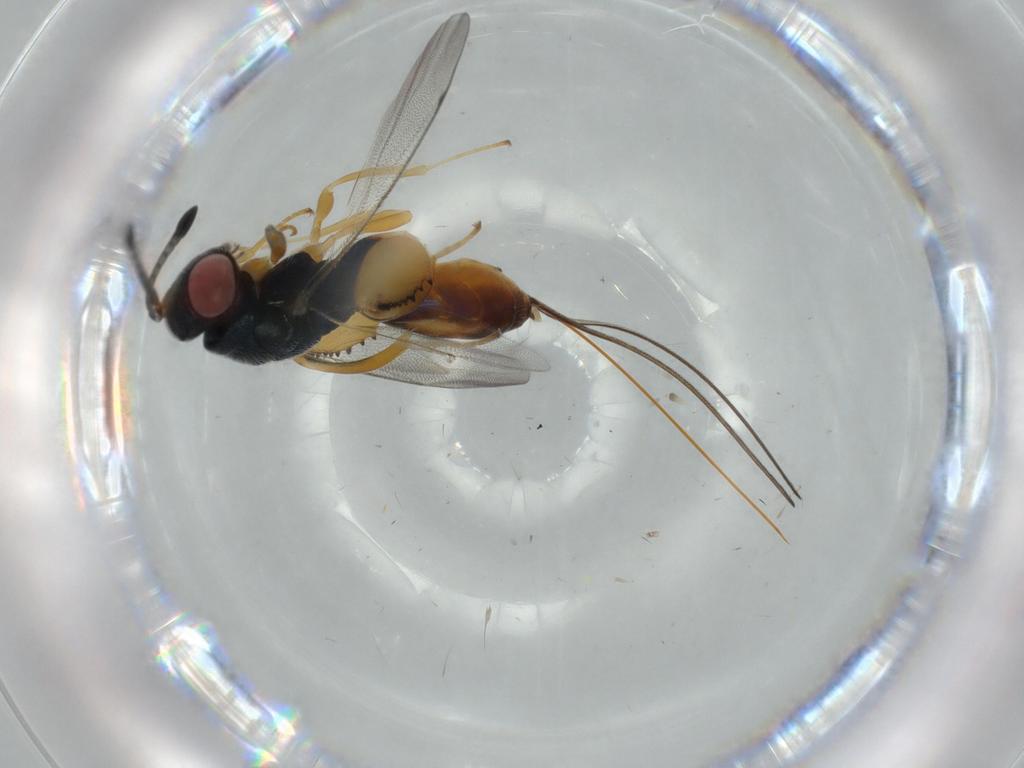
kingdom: Animalia
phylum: Arthropoda
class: Insecta
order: Hymenoptera
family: Torymidae
